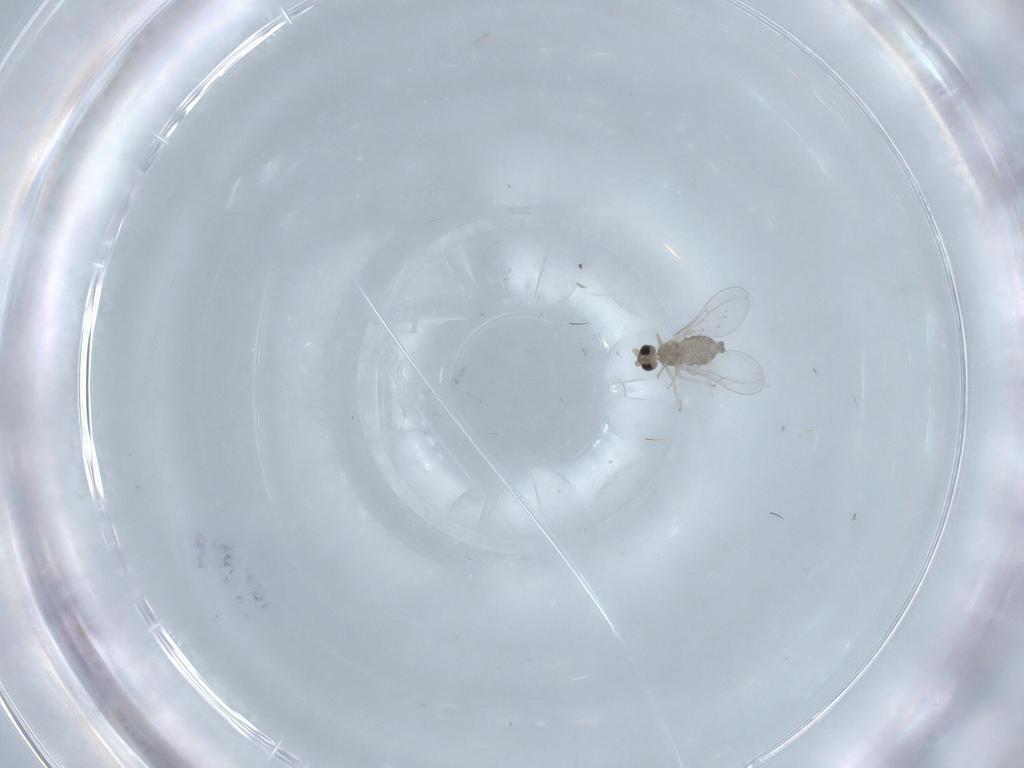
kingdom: Animalia
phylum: Arthropoda
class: Insecta
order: Diptera
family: Cecidomyiidae
